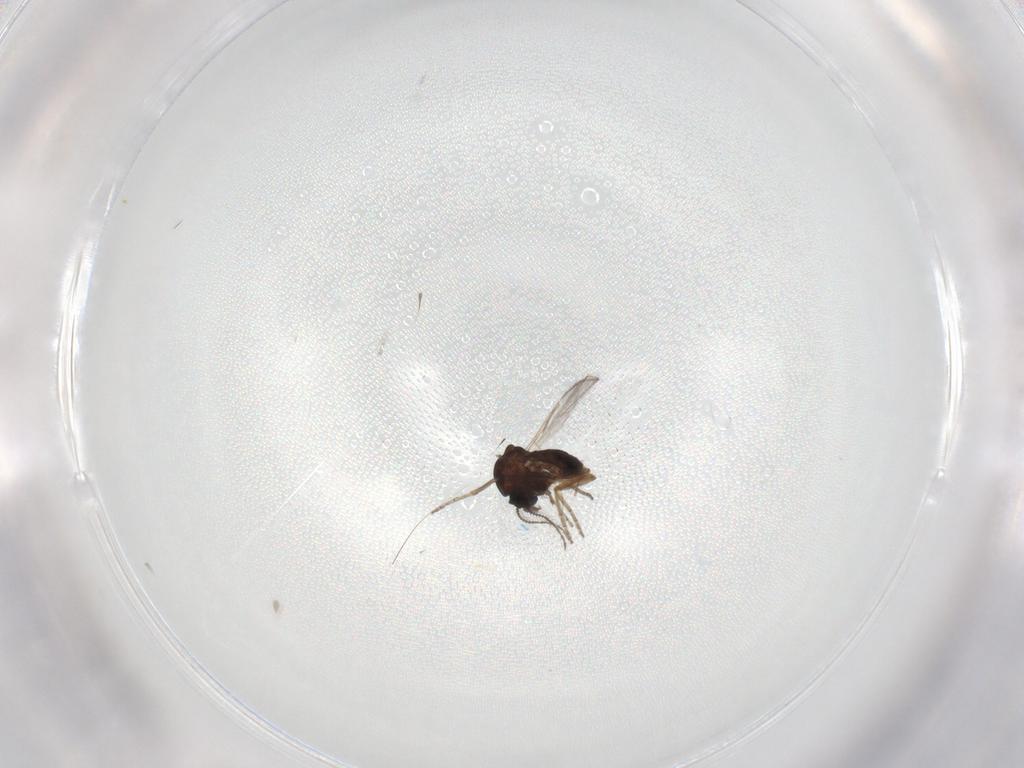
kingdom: Animalia
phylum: Arthropoda
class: Insecta
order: Diptera
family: Ceratopogonidae
